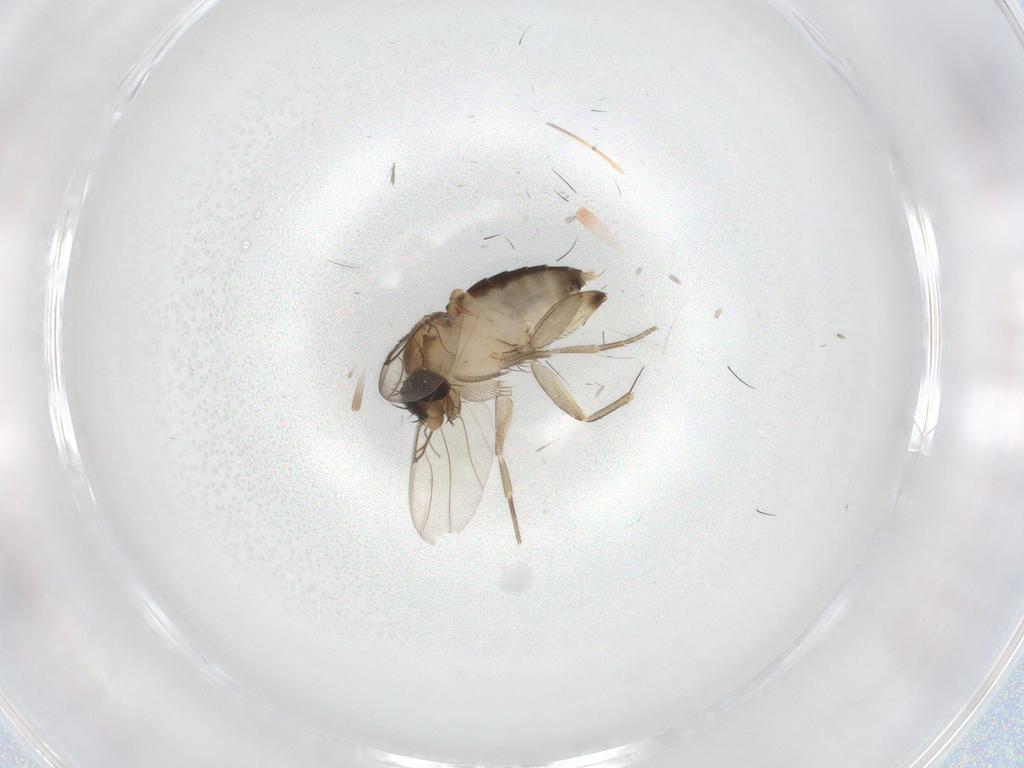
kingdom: Animalia
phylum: Arthropoda
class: Insecta
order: Diptera
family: Phoridae
